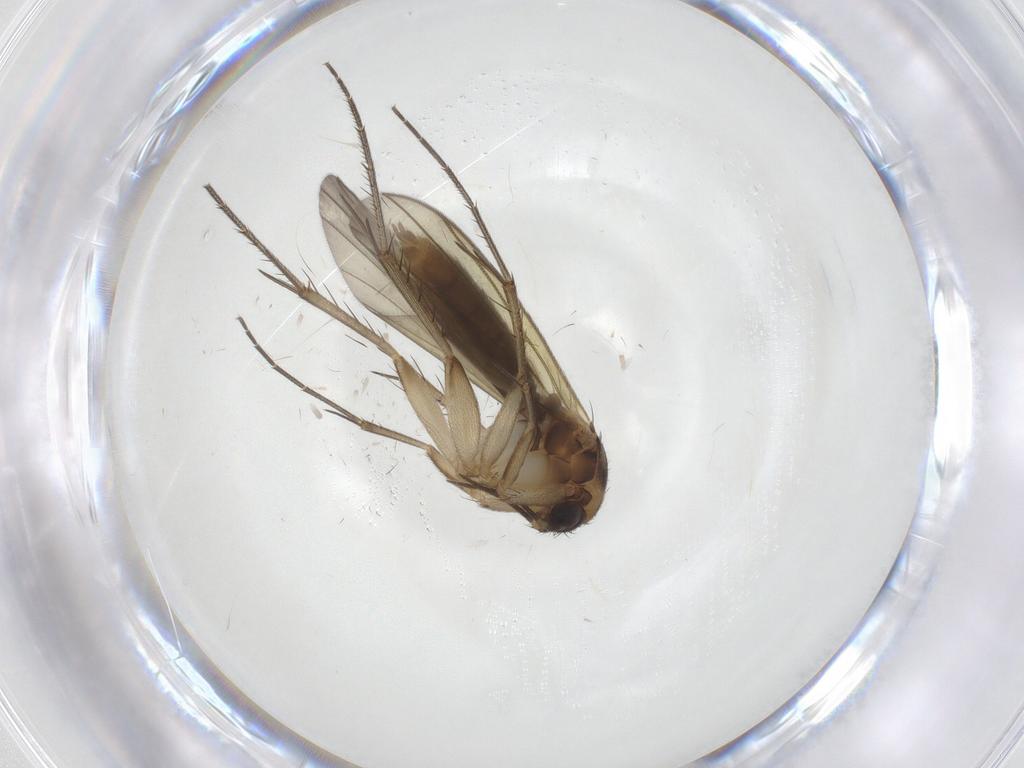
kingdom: Animalia
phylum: Arthropoda
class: Insecta
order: Diptera
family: Mycetophilidae
